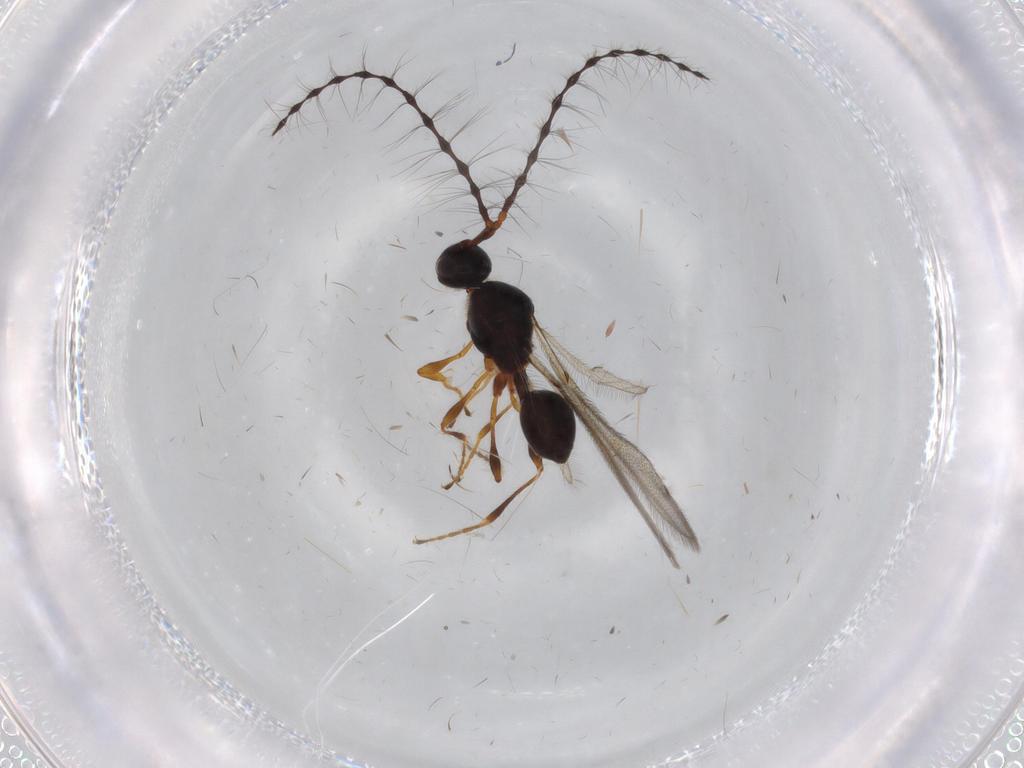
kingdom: Animalia
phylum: Arthropoda
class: Insecta
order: Hymenoptera
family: Diapriidae
